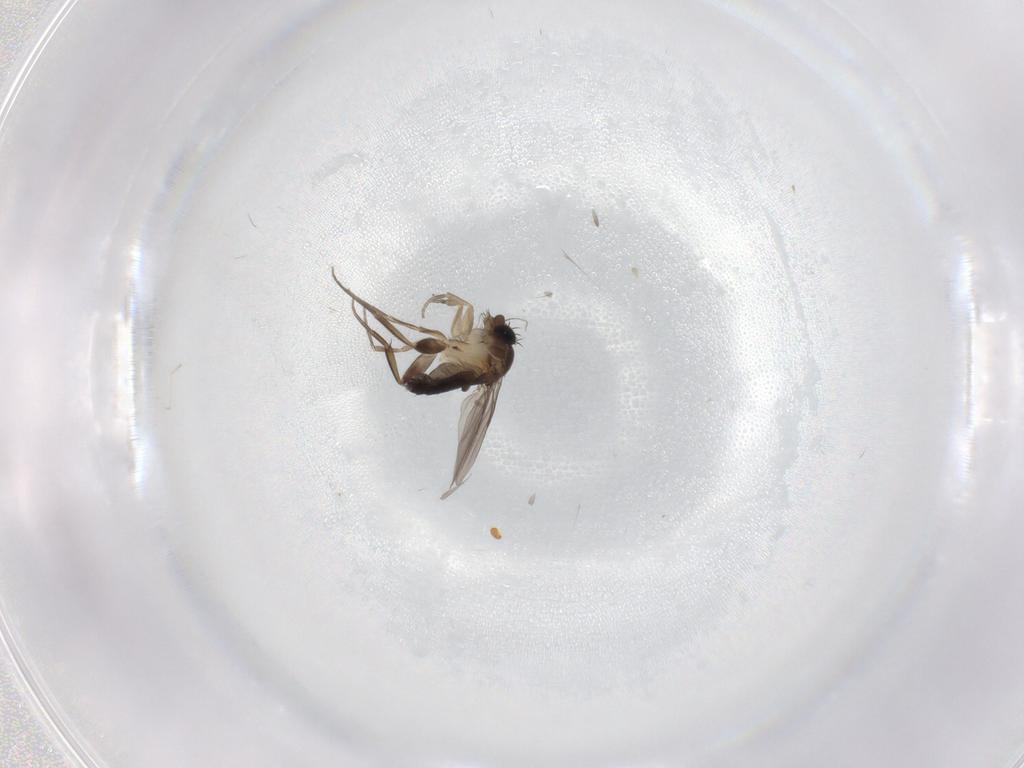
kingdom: Animalia
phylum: Arthropoda
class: Insecta
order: Diptera
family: Phoridae
